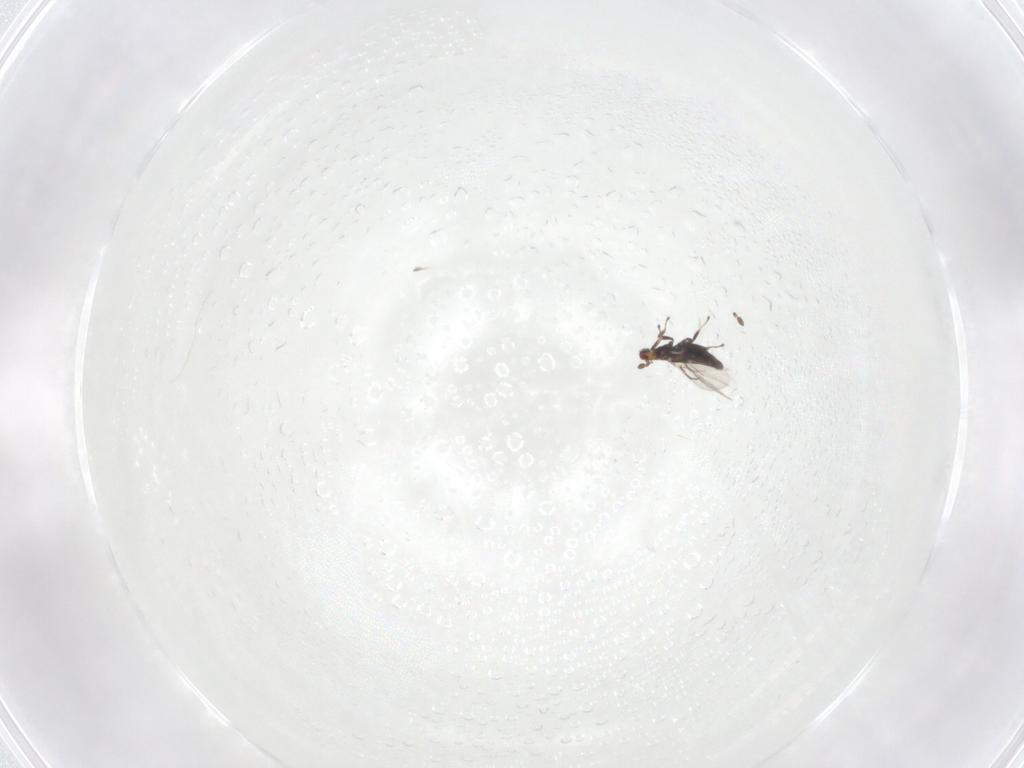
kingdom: Animalia
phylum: Arthropoda
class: Insecta
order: Hymenoptera
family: Trichogrammatidae
